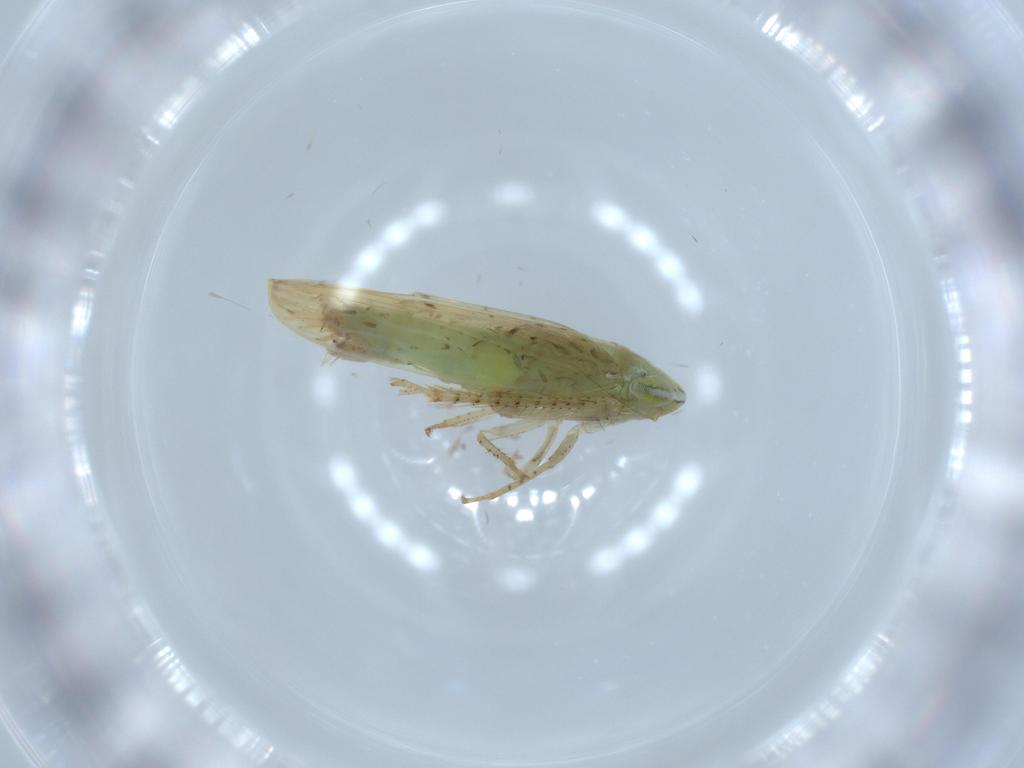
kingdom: Animalia
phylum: Arthropoda
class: Insecta
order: Hemiptera
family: Cicadellidae
